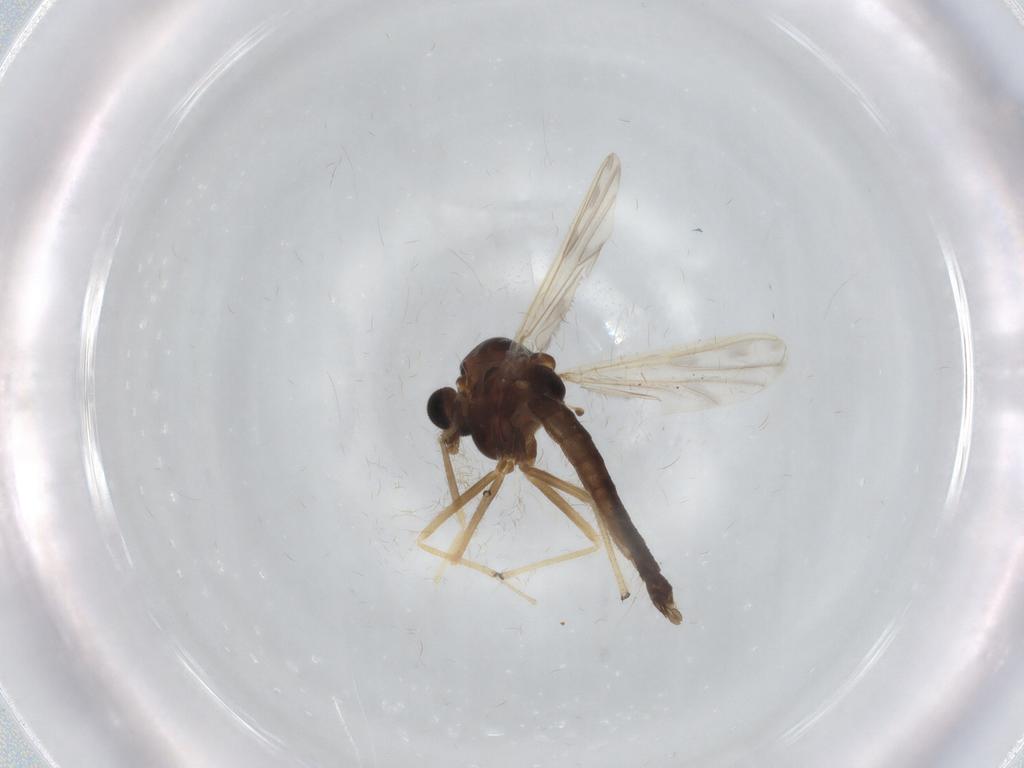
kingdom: Animalia
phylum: Arthropoda
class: Insecta
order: Diptera
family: Chironomidae
